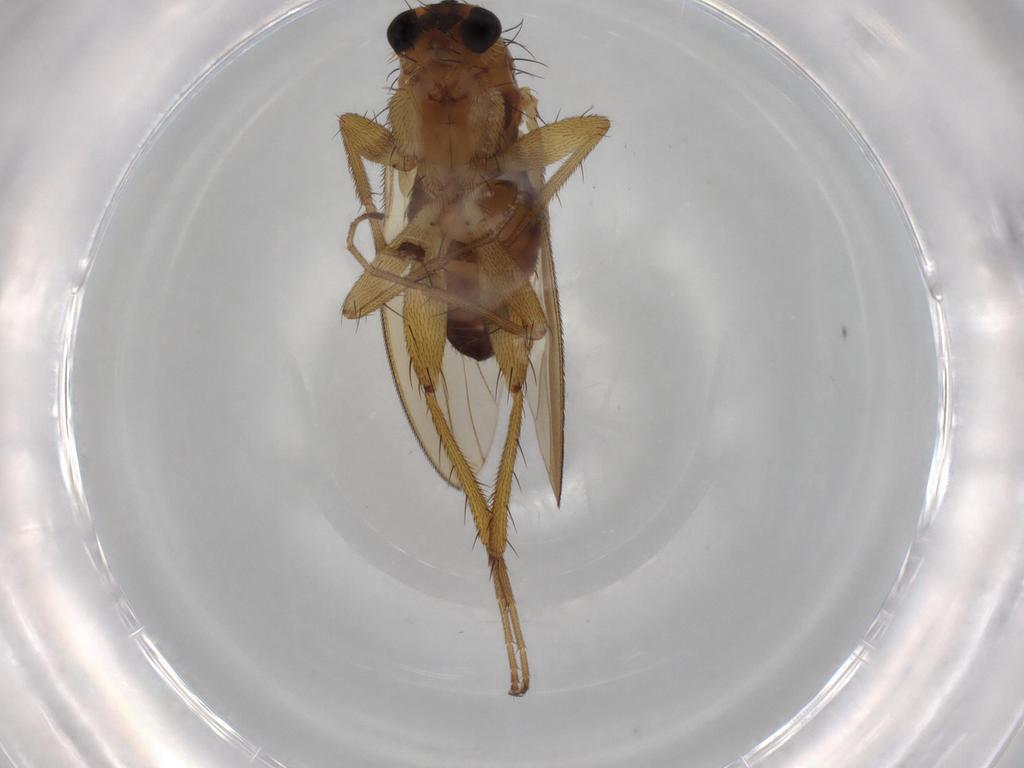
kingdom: Animalia
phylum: Arthropoda
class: Insecta
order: Diptera
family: Lonchopteridae
